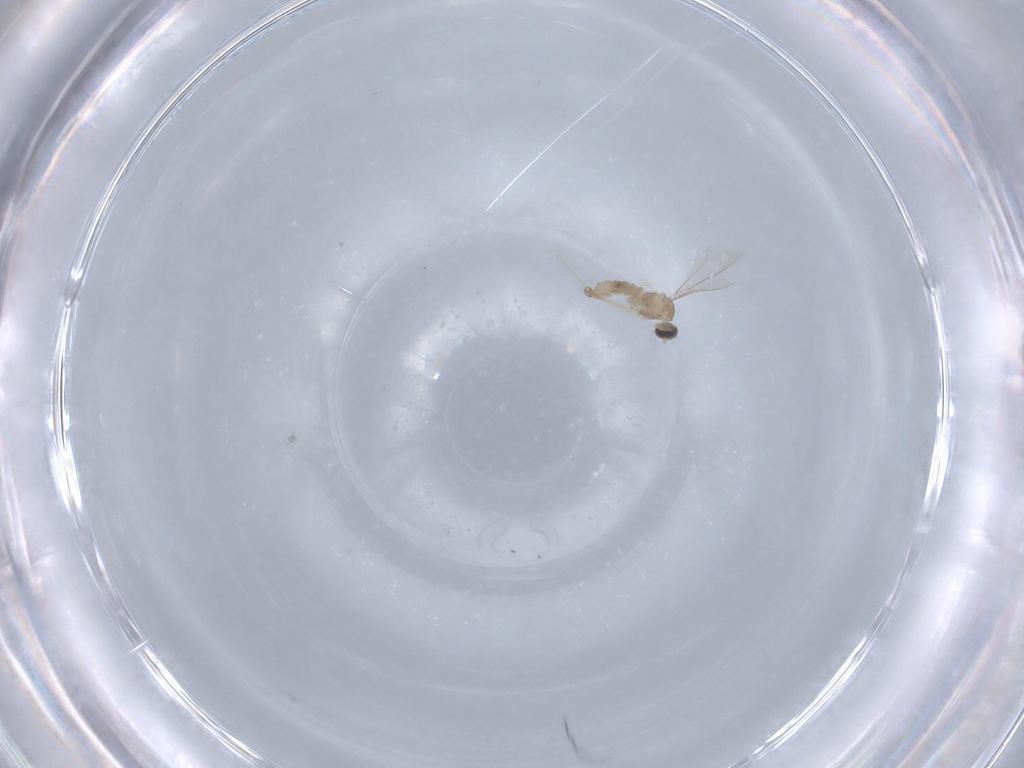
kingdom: Animalia
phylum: Arthropoda
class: Insecta
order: Diptera
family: Cecidomyiidae
